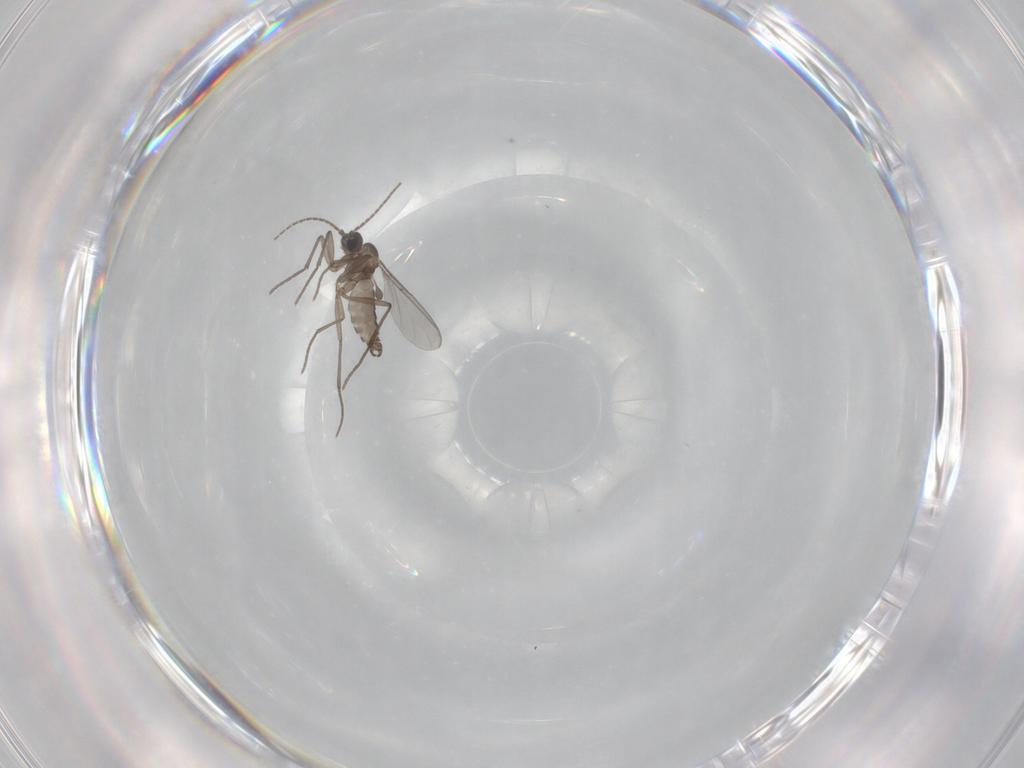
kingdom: Animalia
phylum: Arthropoda
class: Insecta
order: Diptera
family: Sciaridae
